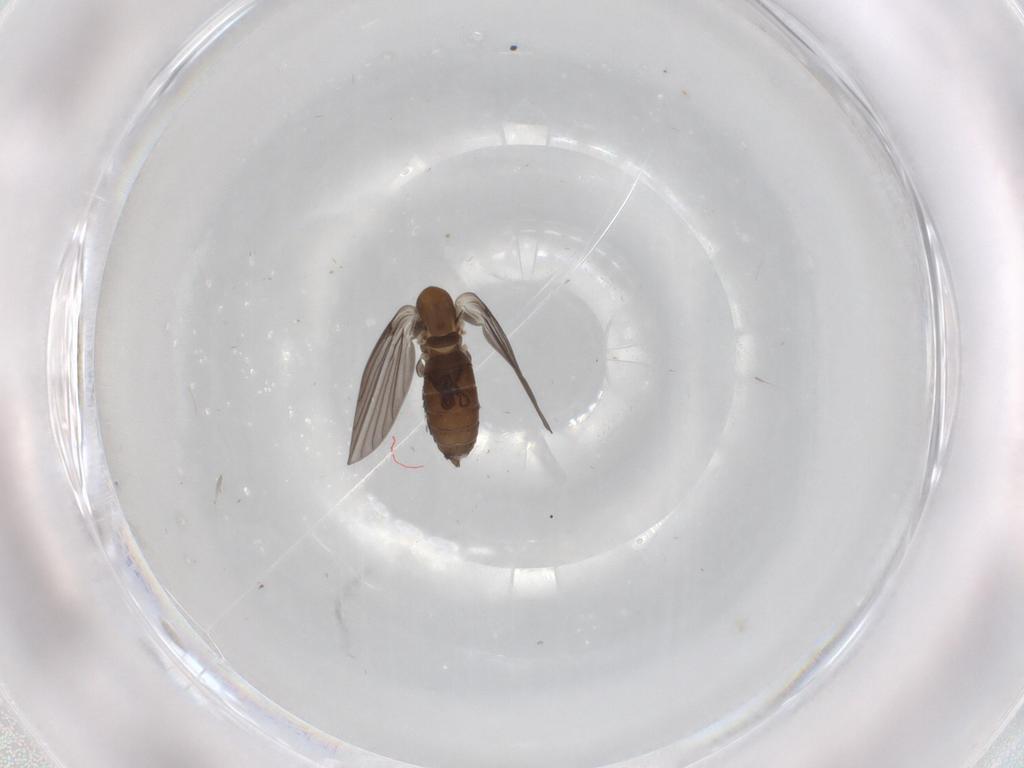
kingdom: Animalia
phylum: Arthropoda
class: Insecta
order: Diptera
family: Psychodidae
